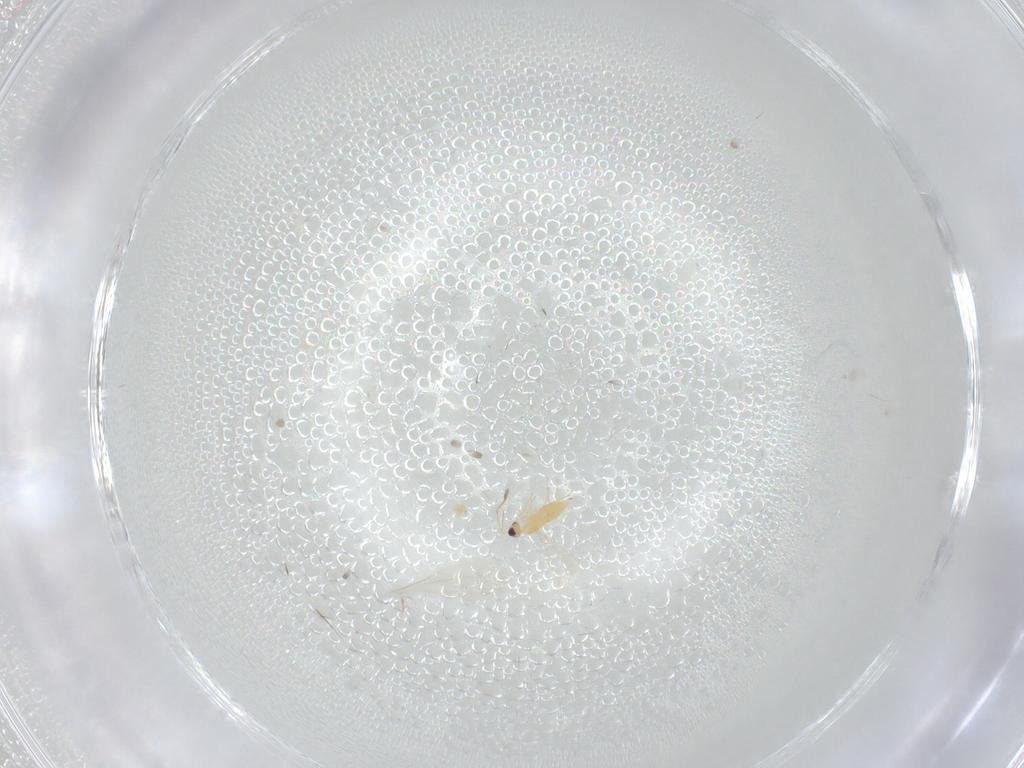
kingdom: Animalia
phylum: Arthropoda
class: Insecta
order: Hymenoptera
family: Mymaridae
